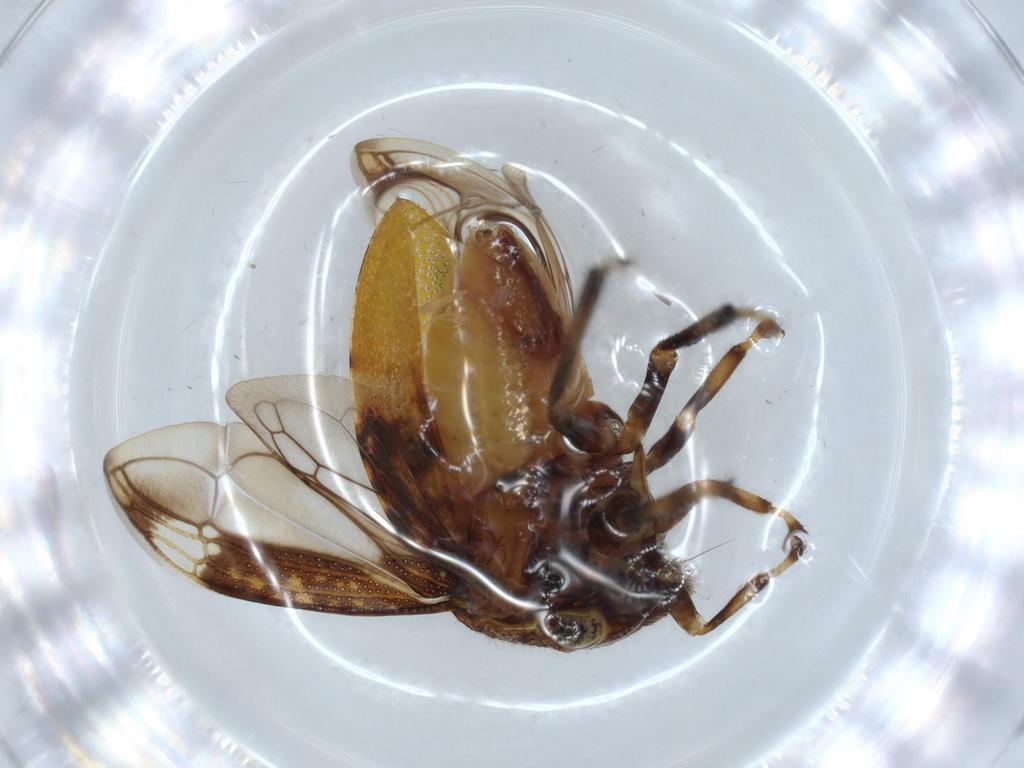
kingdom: Animalia
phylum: Arthropoda
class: Insecta
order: Hemiptera
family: Membracidae
